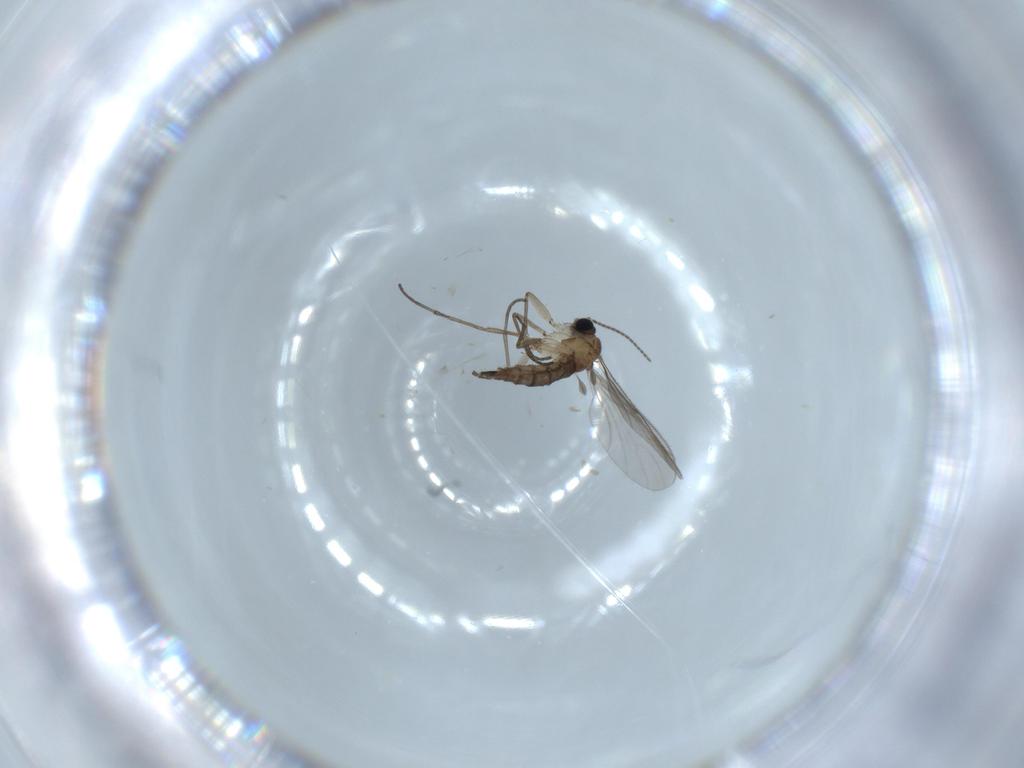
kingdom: Animalia
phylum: Arthropoda
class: Insecta
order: Diptera
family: Sciaridae
